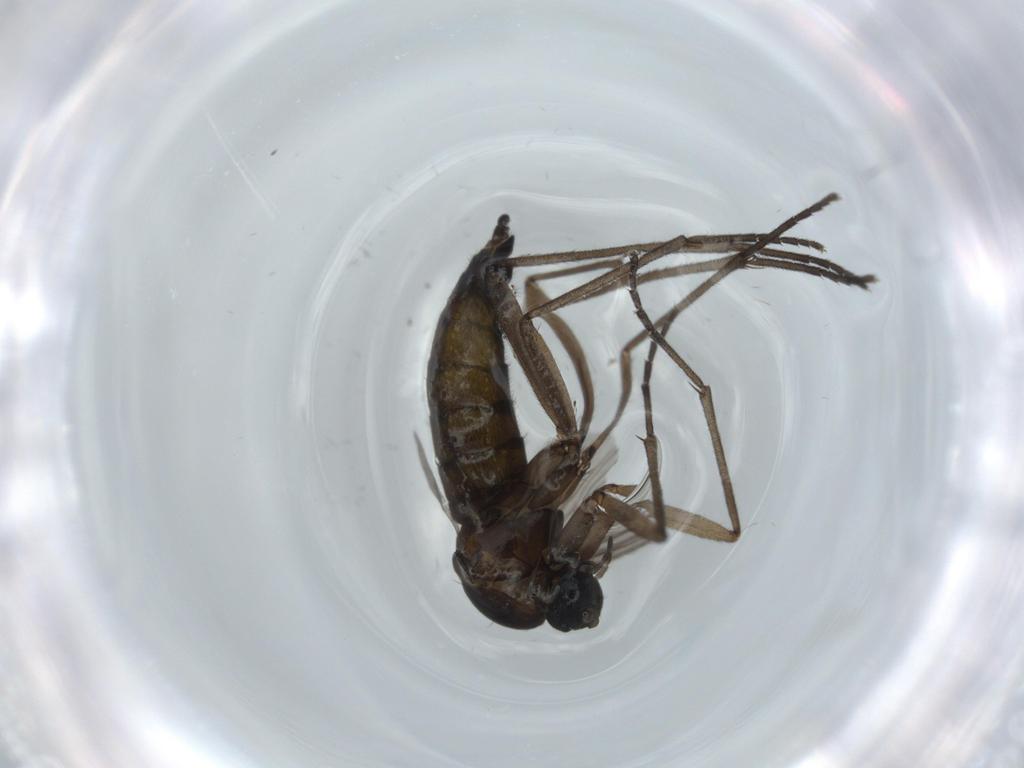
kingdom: Animalia
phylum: Arthropoda
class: Insecta
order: Diptera
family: Sciaridae
